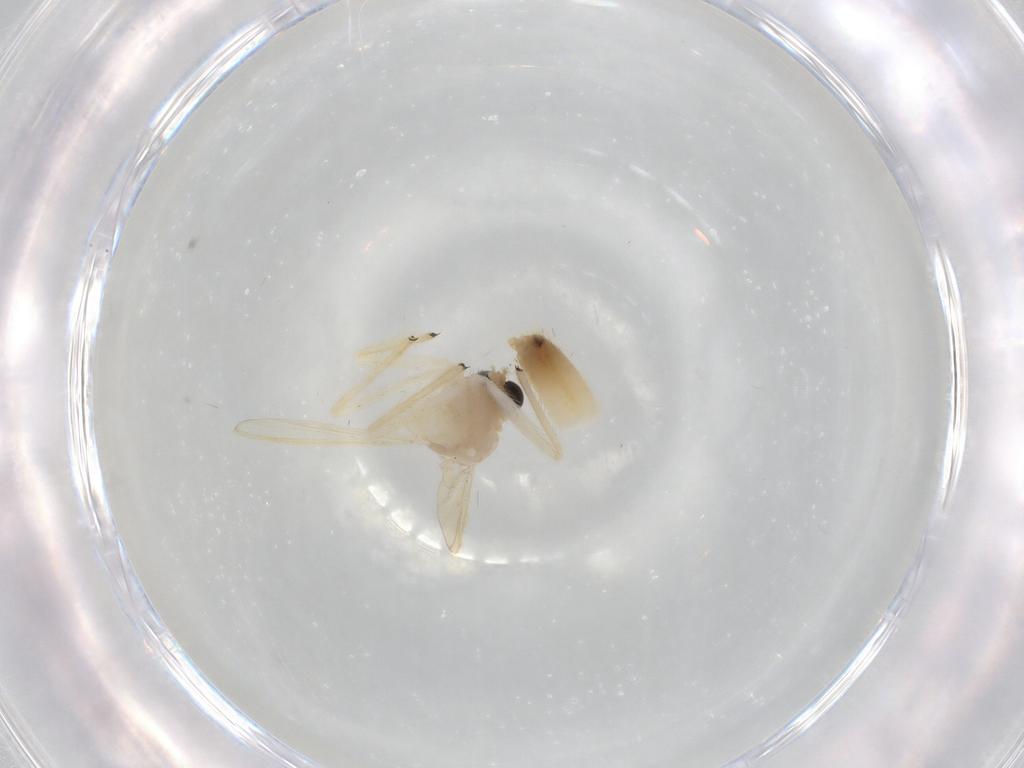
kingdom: Animalia
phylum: Arthropoda
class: Insecta
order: Diptera
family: Chironomidae
